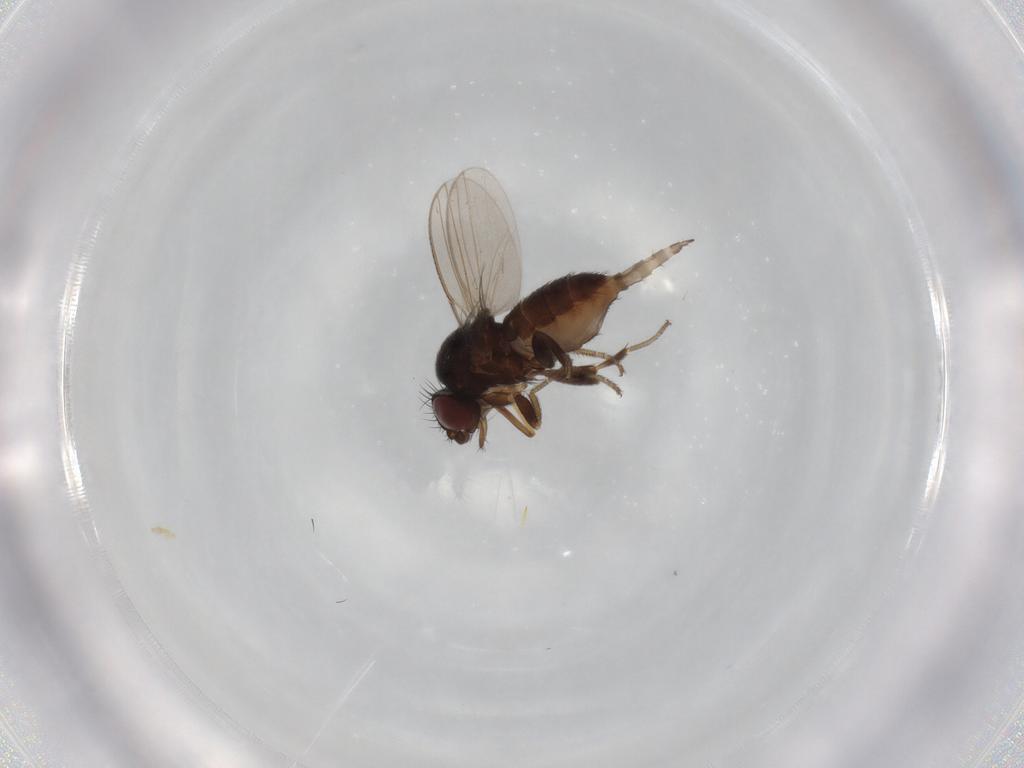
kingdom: Animalia
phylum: Arthropoda
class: Insecta
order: Diptera
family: Milichiidae
